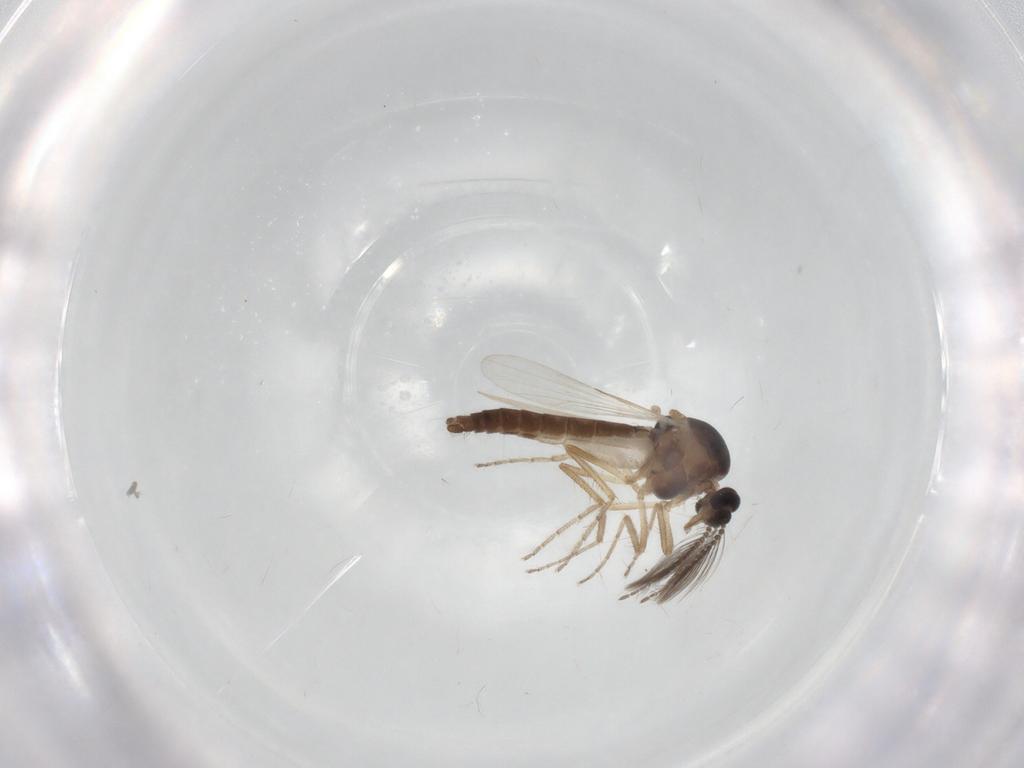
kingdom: Animalia
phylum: Arthropoda
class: Insecta
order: Diptera
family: Ceratopogonidae
